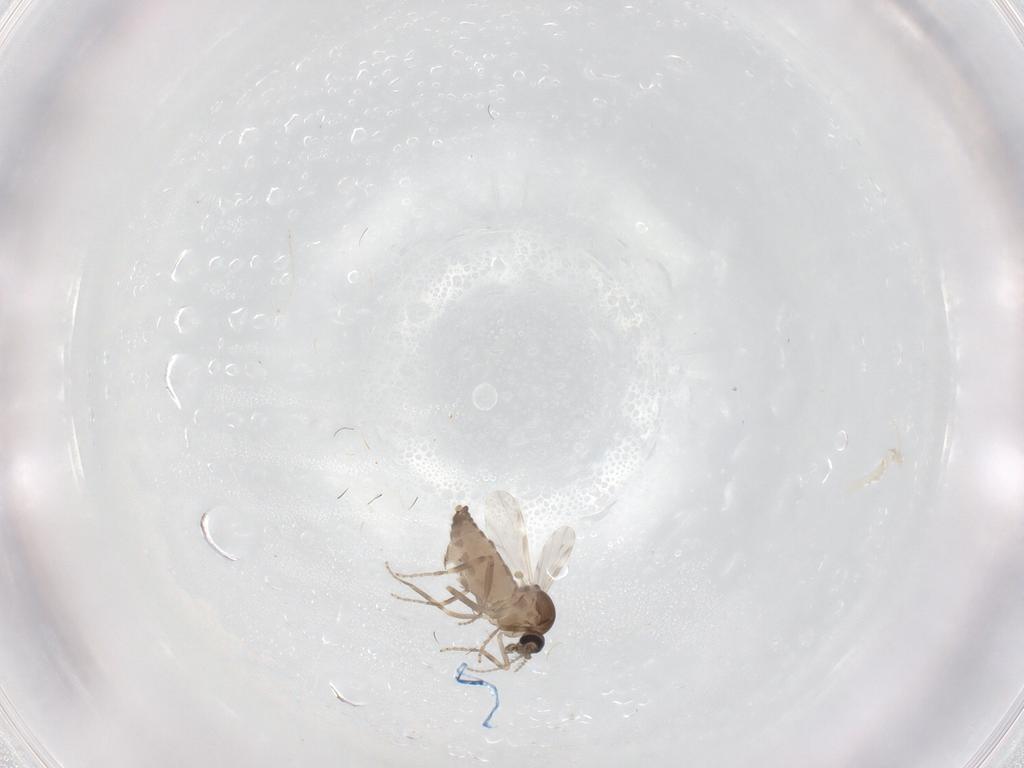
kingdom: Animalia
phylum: Arthropoda
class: Insecta
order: Diptera
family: Ceratopogonidae
